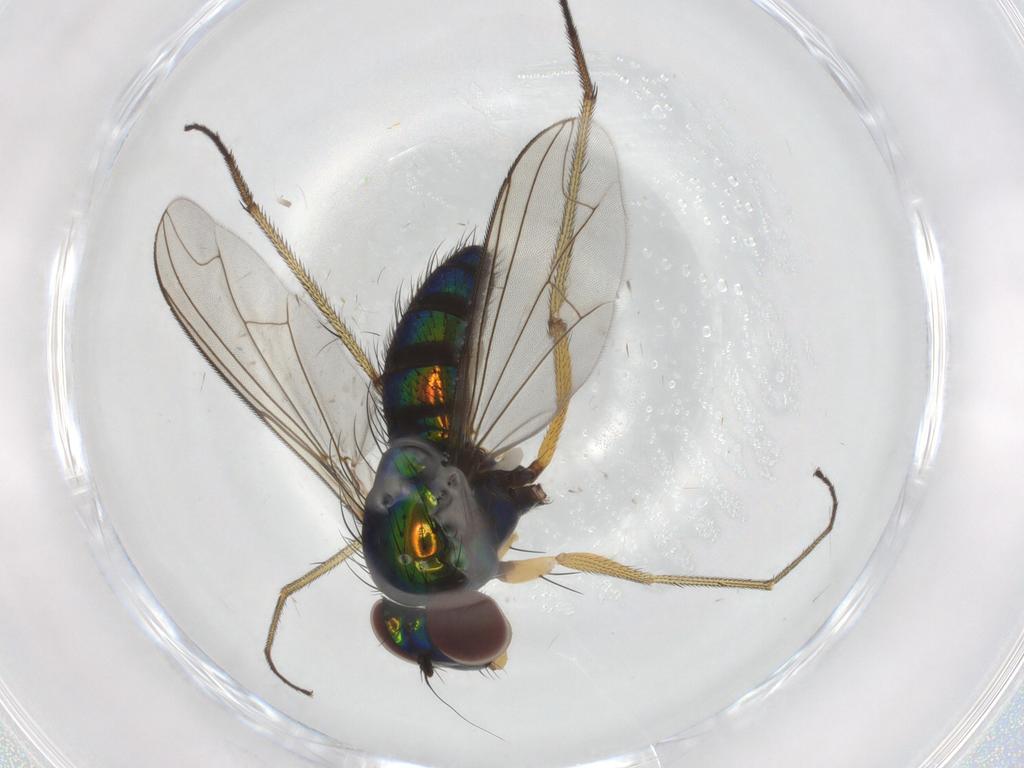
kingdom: Animalia
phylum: Arthropoda
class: Insecta
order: Diptera
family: Dolichopodidae
